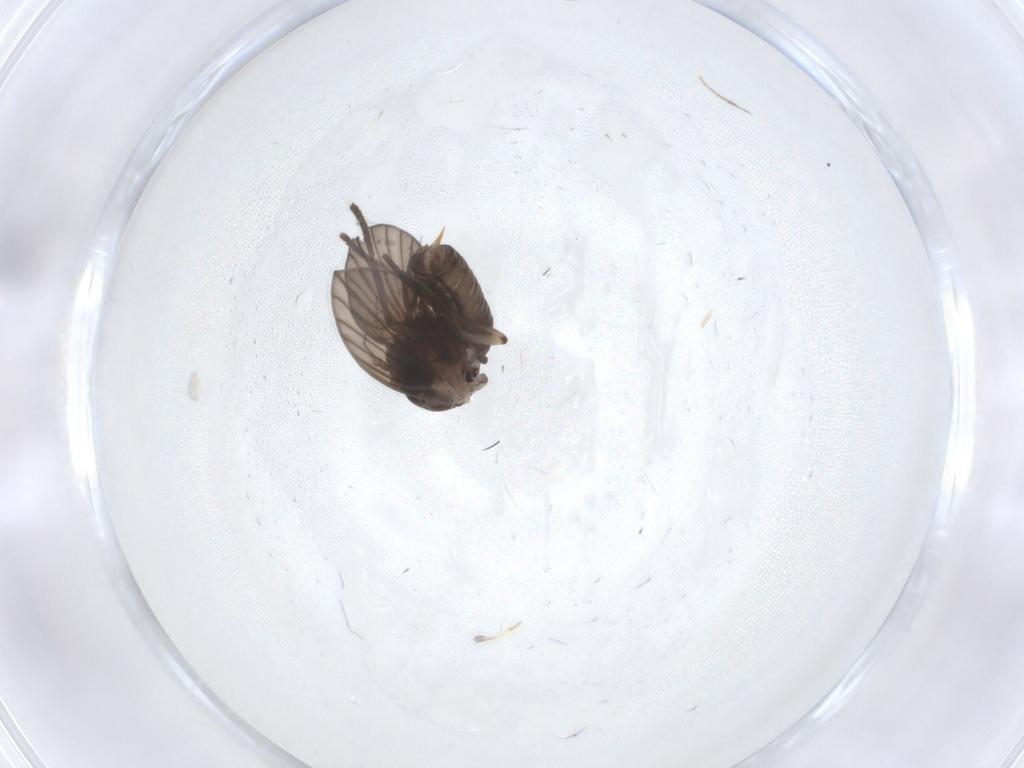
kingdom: Animalia
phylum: Arthropoda
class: Insecta
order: Diptera
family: Psychodidae
